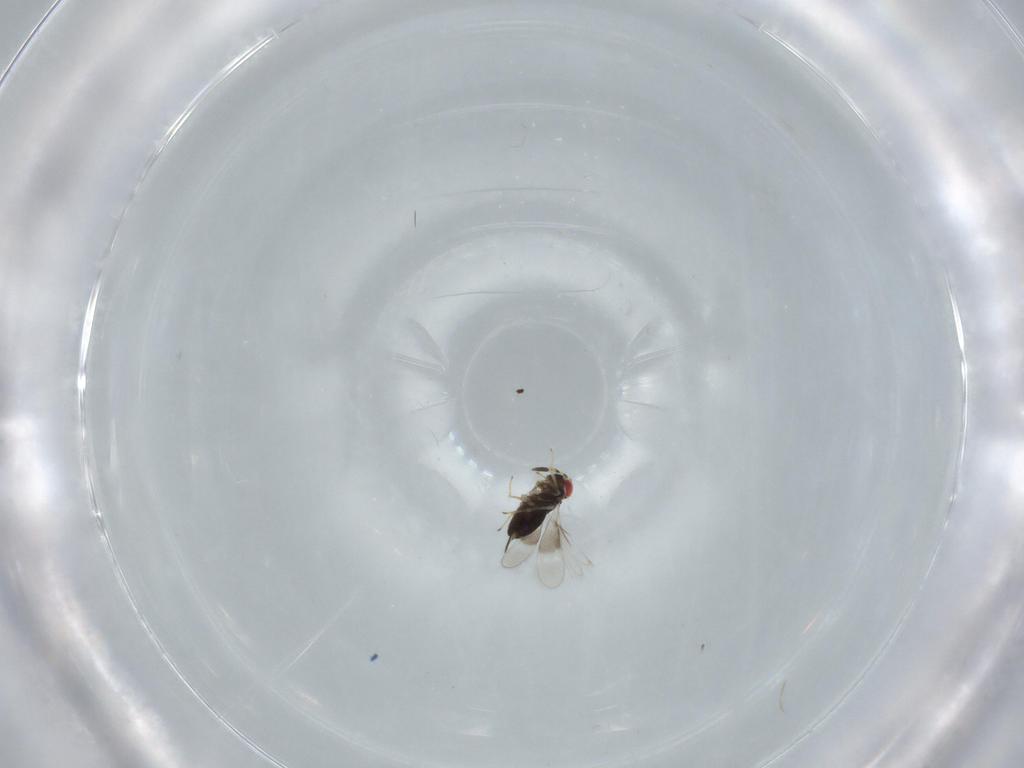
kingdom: Animalia
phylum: Arthropoda
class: Insecta
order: Hymenoptera
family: Azotidae
